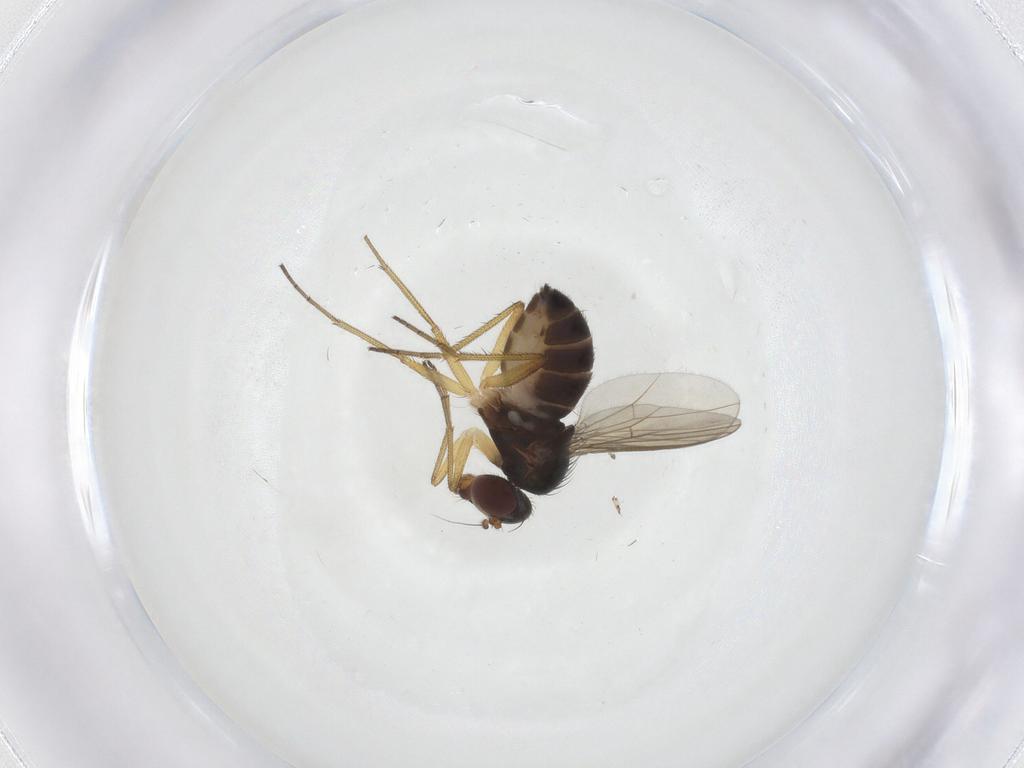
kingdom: Animalia
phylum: Arthropoda
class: Insecta
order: Diptera
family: Dolichopodidae
